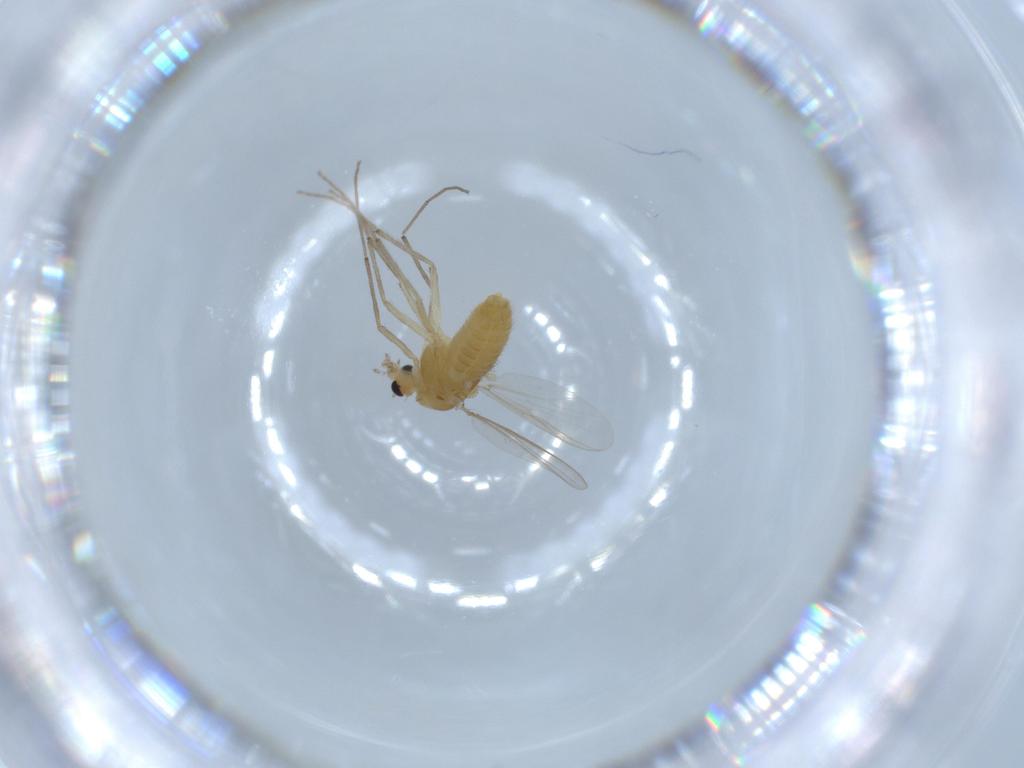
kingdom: Animalia
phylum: Arthropoda
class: Insecta
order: Diptera
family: Chironomidae
